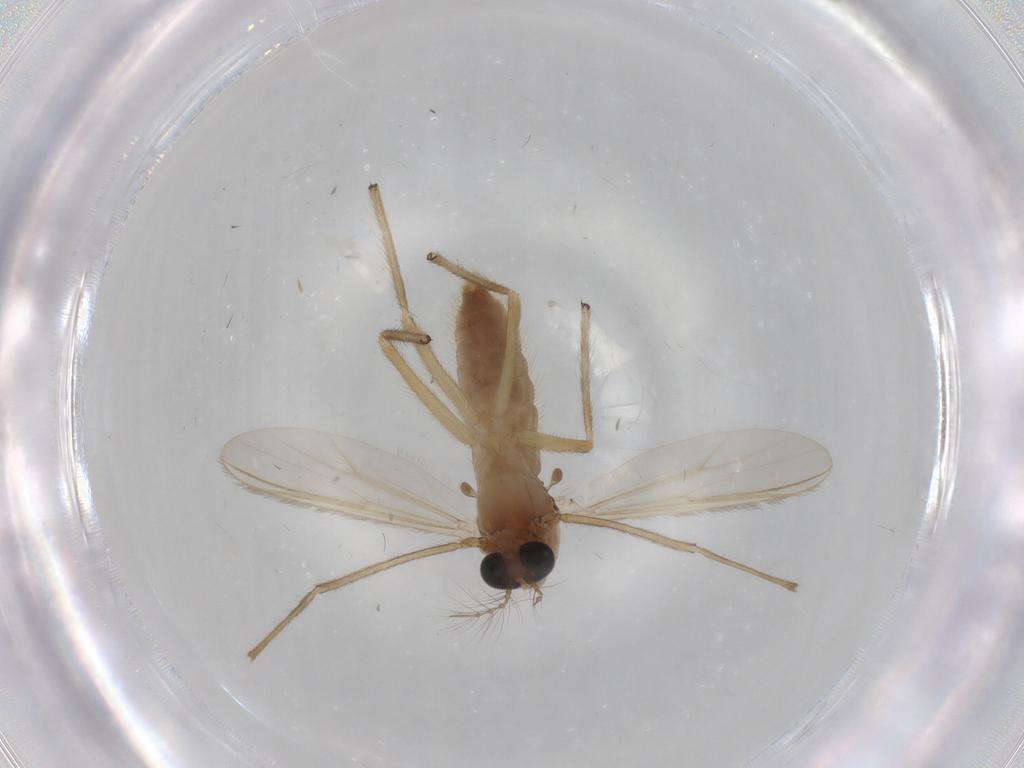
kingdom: Animalia
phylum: Arthropoda
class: Insecta
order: Diptera
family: Chironomidae
